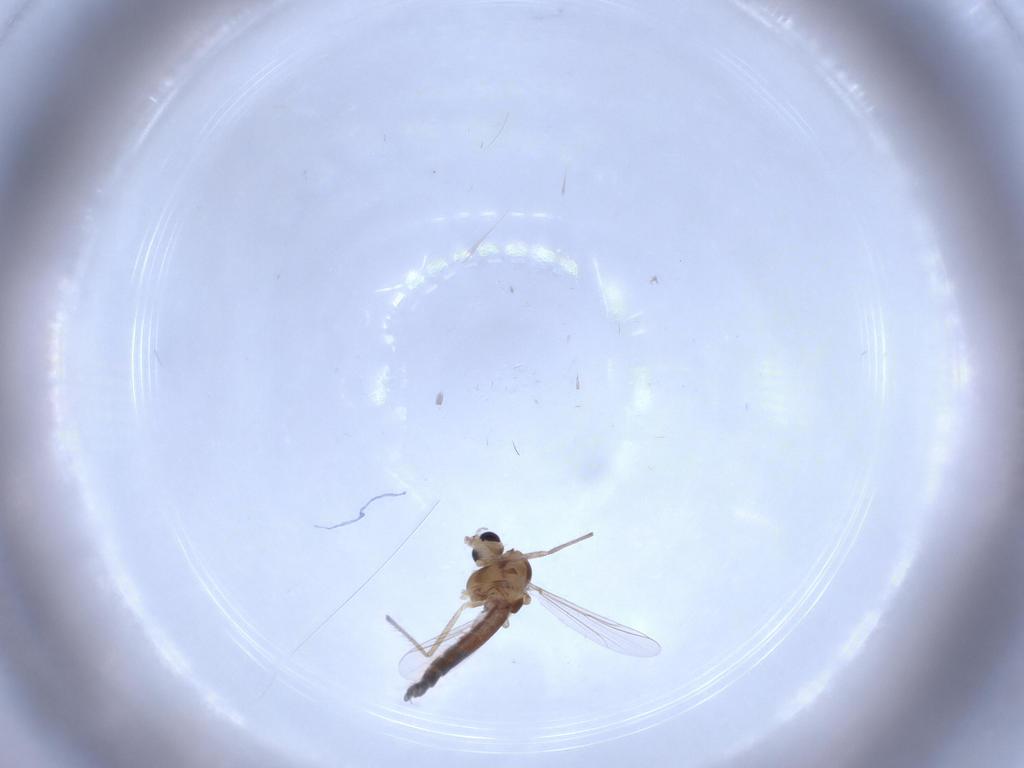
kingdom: Animalia
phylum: Arthropoda
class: Insecta
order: Diptera
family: Chironomidae
